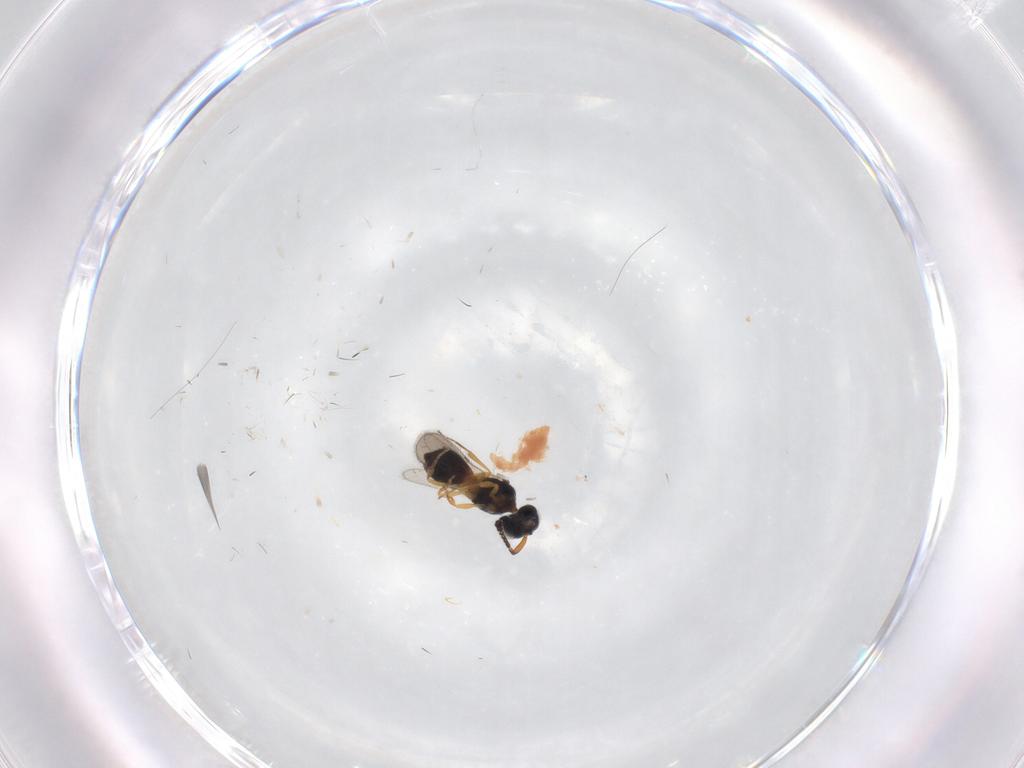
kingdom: Animalia
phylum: Arthropoda
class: Insecta
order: Hymenoptera
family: Scelionidae
